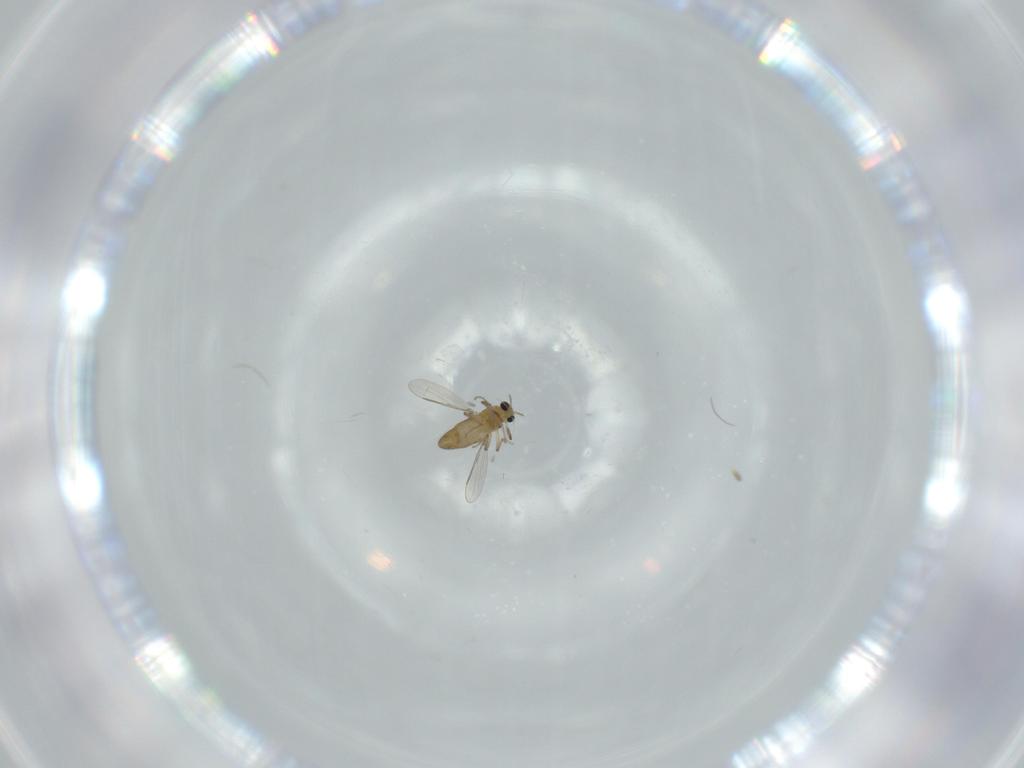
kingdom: Animalia
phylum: Arthropoda
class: Insecta
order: Diptera
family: Chironomidae
